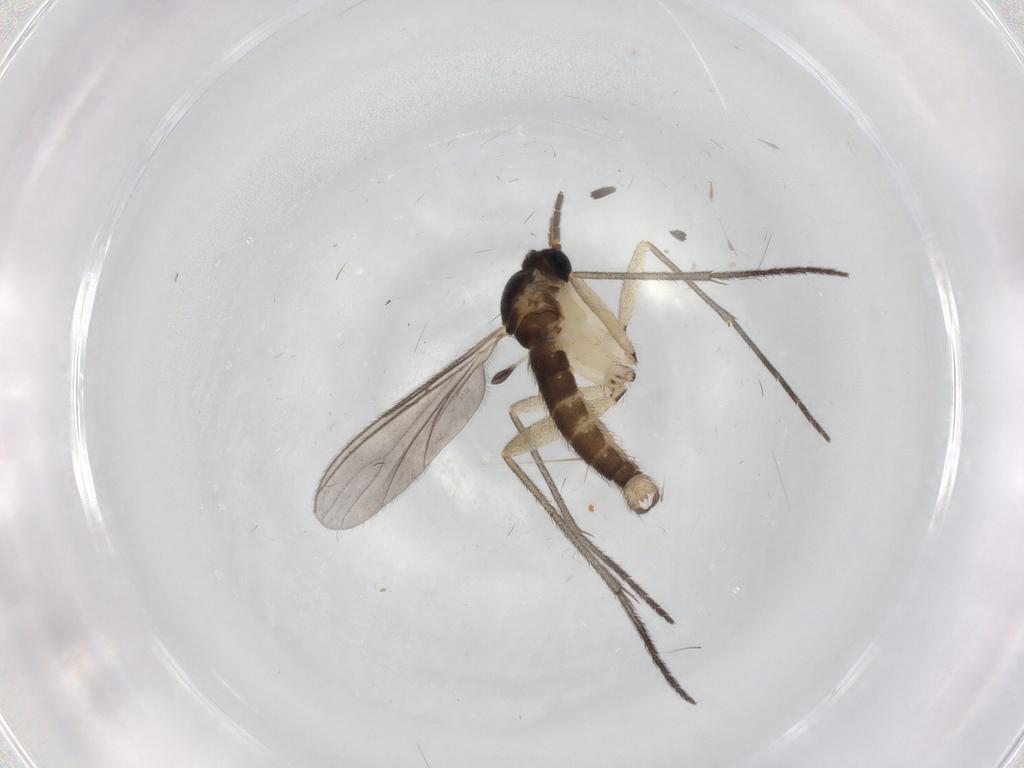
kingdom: Animalia
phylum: Arthropoda
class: Insecta
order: Diptera
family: Sciaridae
